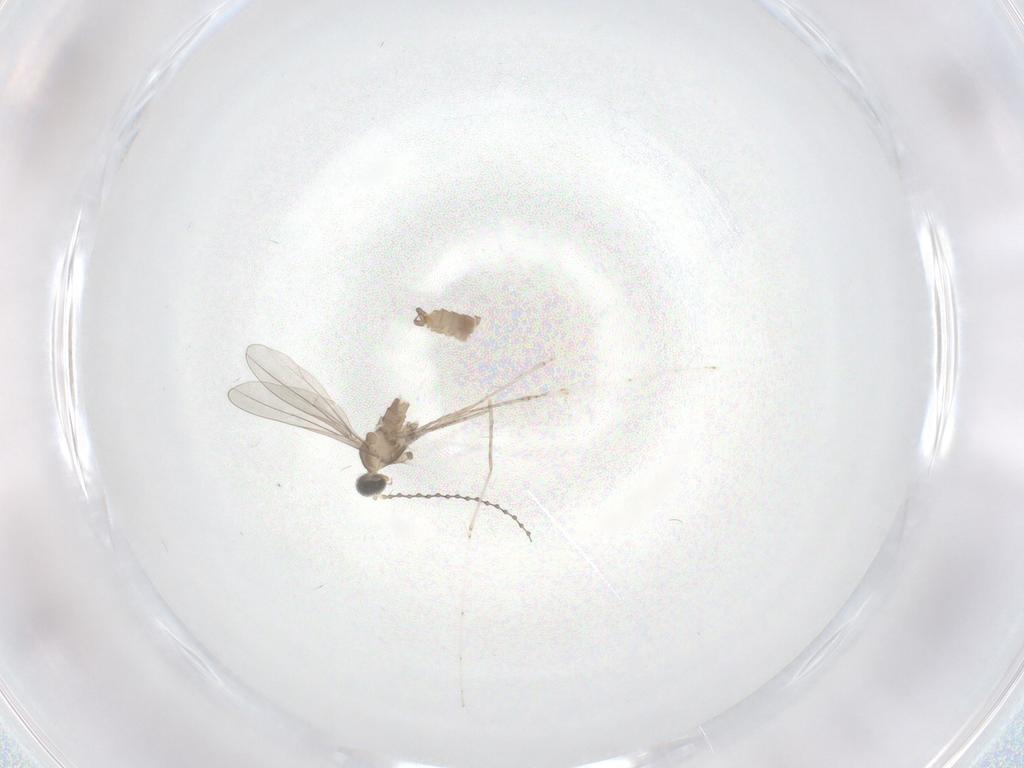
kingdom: Animalia
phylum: Arthropoda
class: Insecta
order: Diptera
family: Cecidomyiidae
